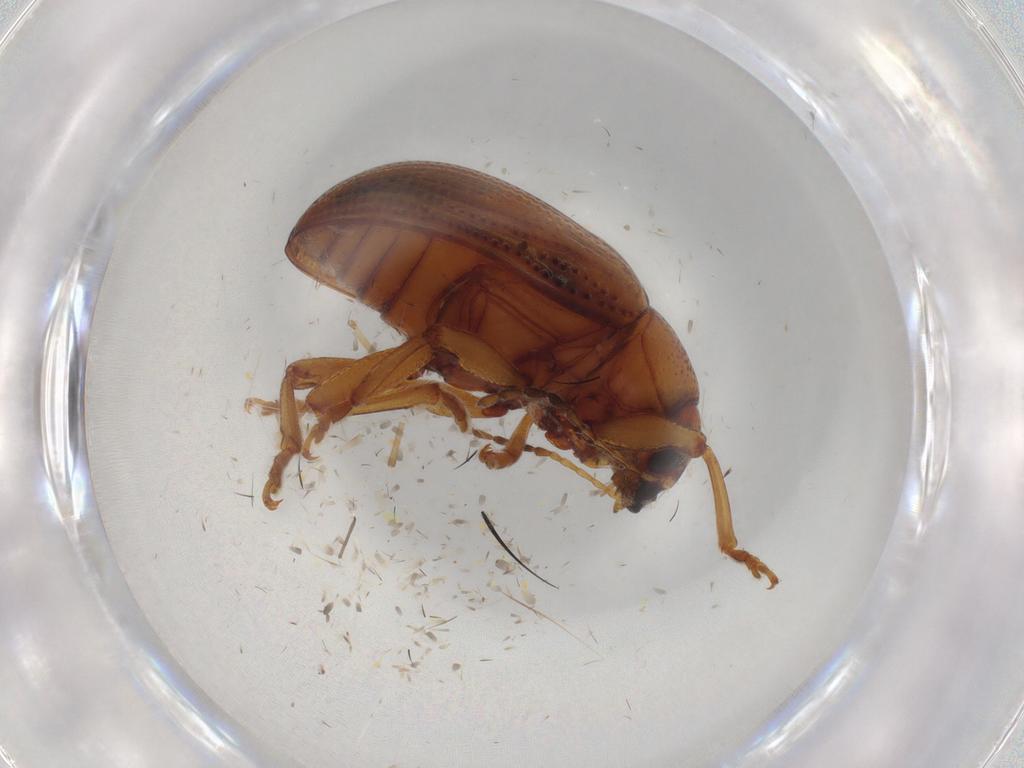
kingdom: Animalia
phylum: Arthropoda
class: Insecta
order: Coleoptera
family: Chrysomelidae
